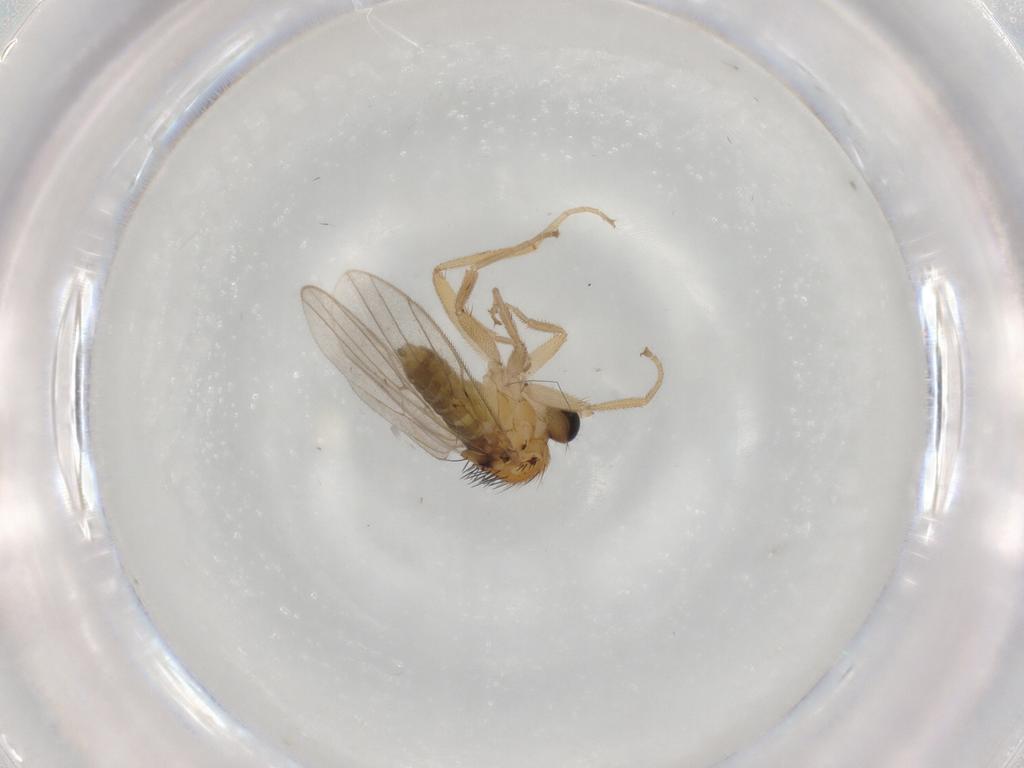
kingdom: Animalia
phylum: Arthropoda
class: Insecta
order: Diptera
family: Hybotidae
